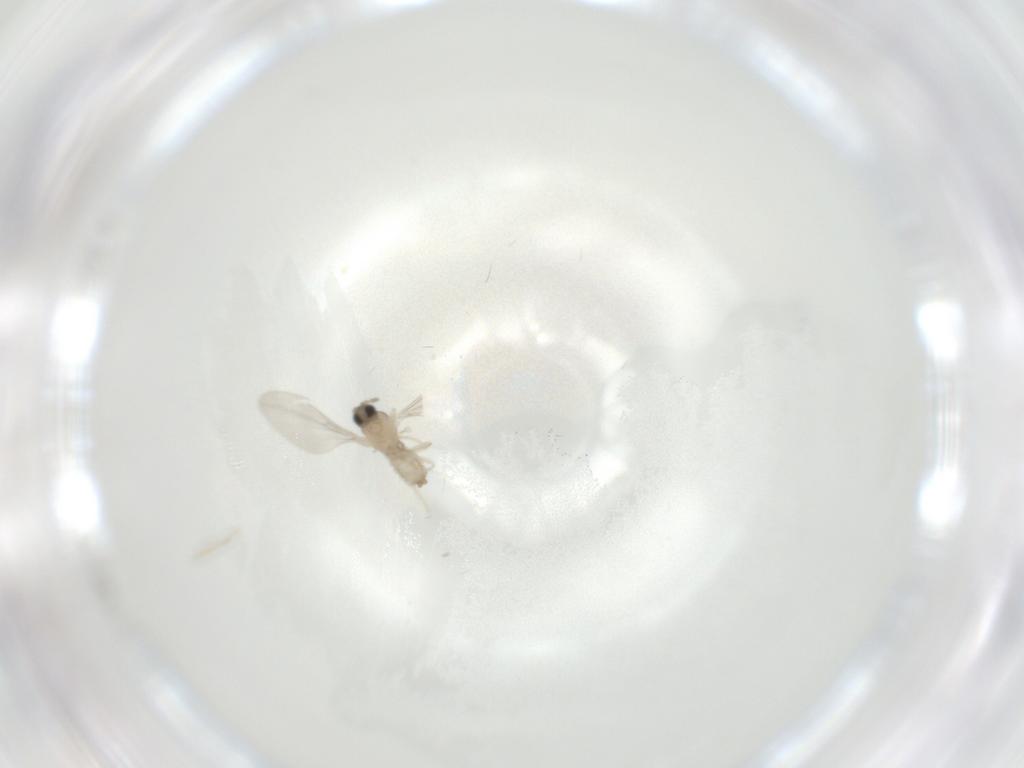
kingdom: Animalia
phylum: Arthropoda
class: Insecta
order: Diptera
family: Cecidomyiidae
